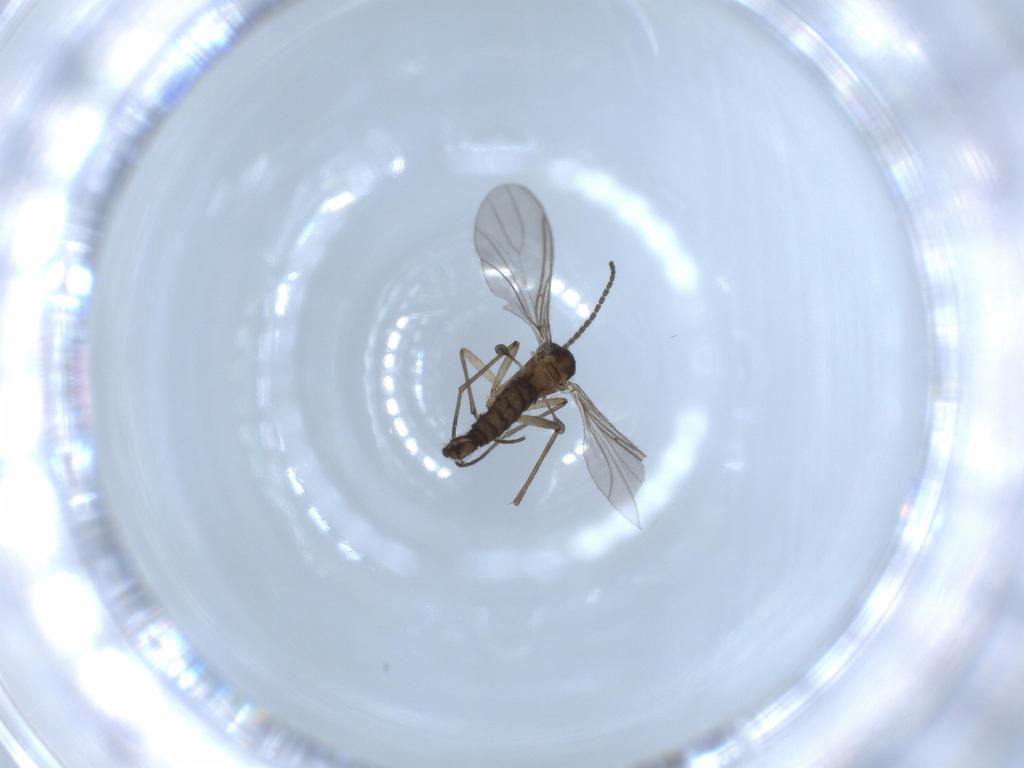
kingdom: Animalia
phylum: Arthropoda
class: Insecta
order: Diptera
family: Sciaridae
